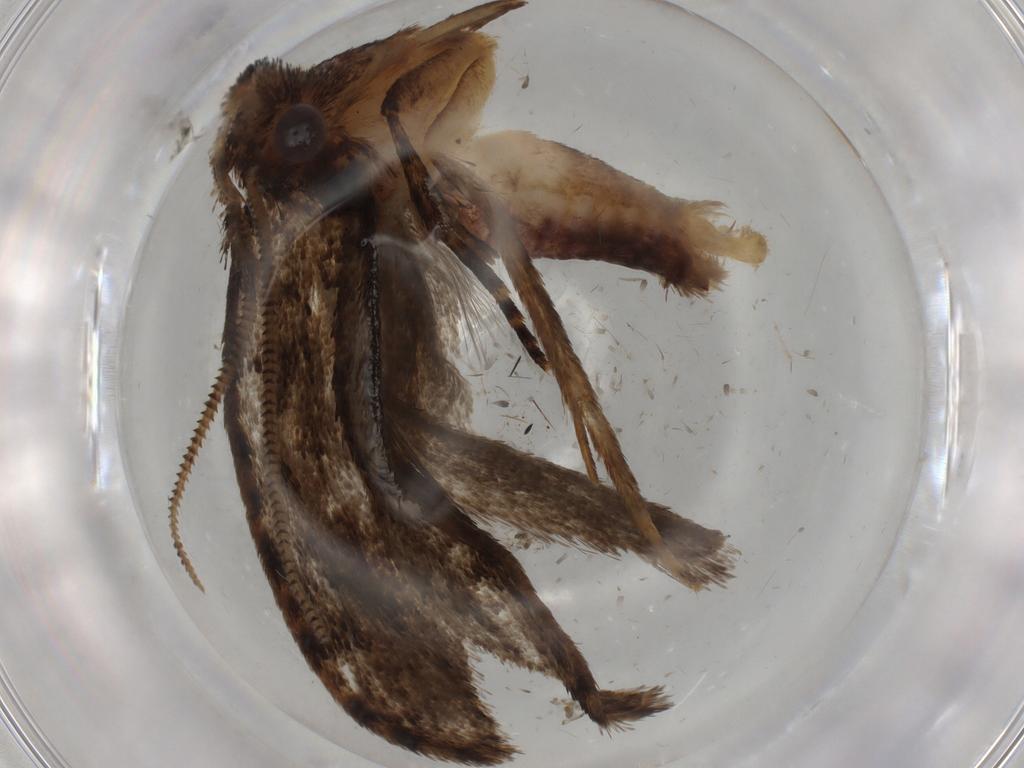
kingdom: Animalia
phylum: Arthropoda
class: Insecta
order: Lepidoptera
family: Tineidae
